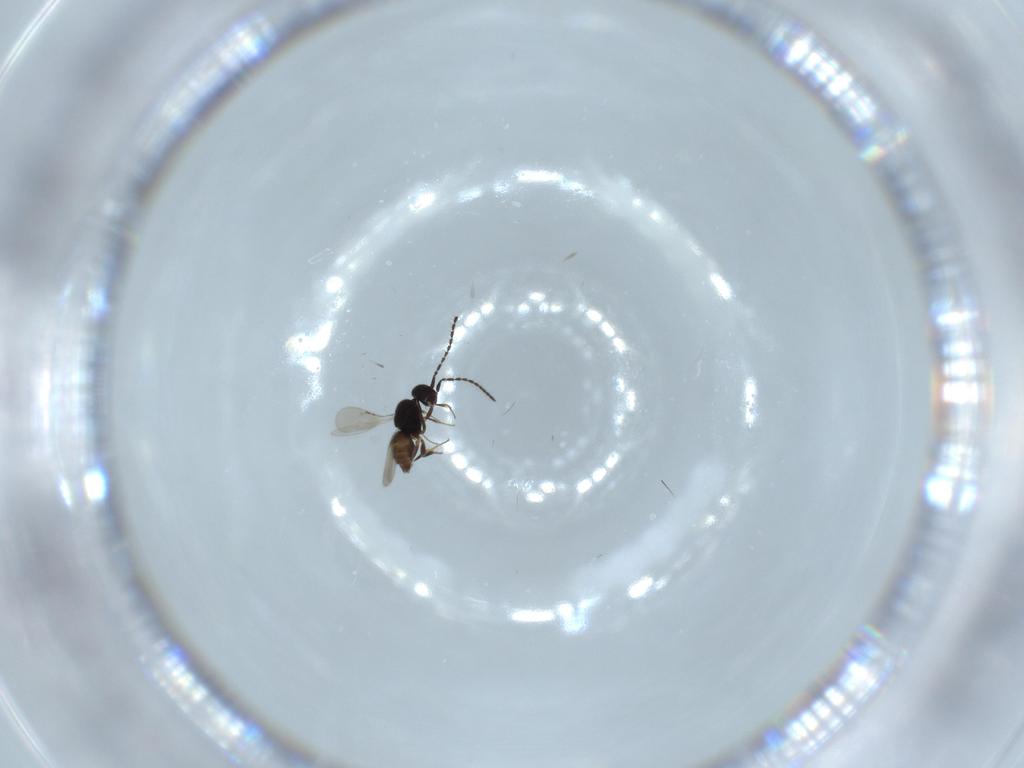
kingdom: Animalia
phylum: Arthropoda
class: Insecta
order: Hymenoptera
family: Ceraphronidae
